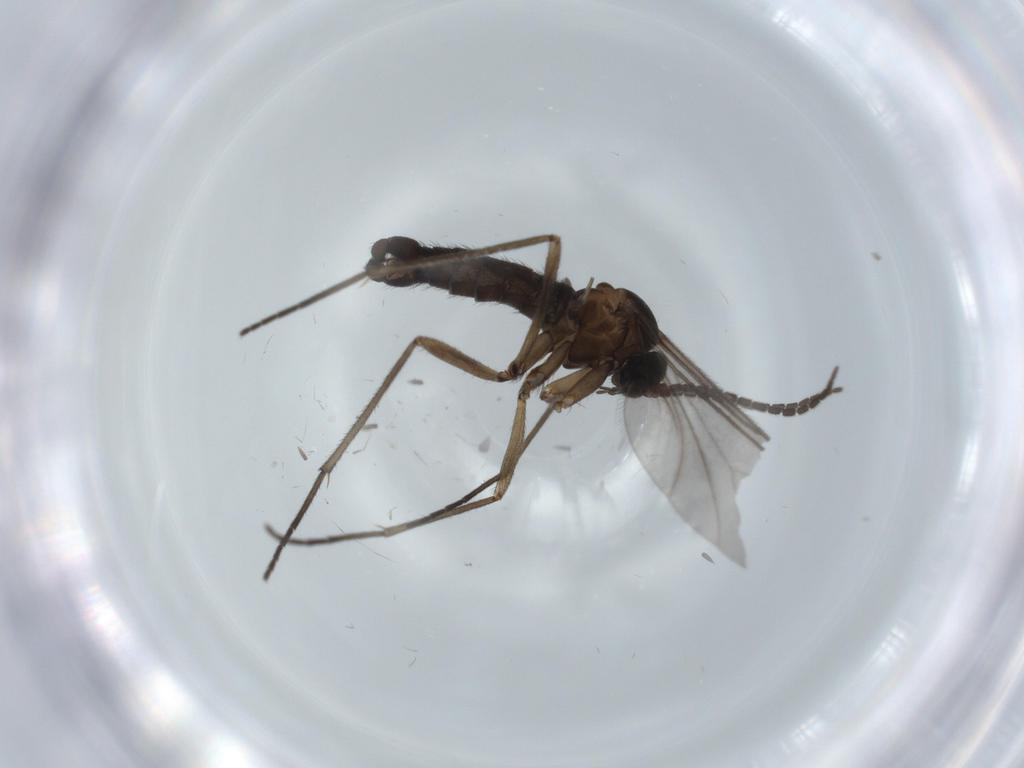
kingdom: Animalia
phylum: Arthropoda
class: Insecta
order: Diptera
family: Sciaridae
